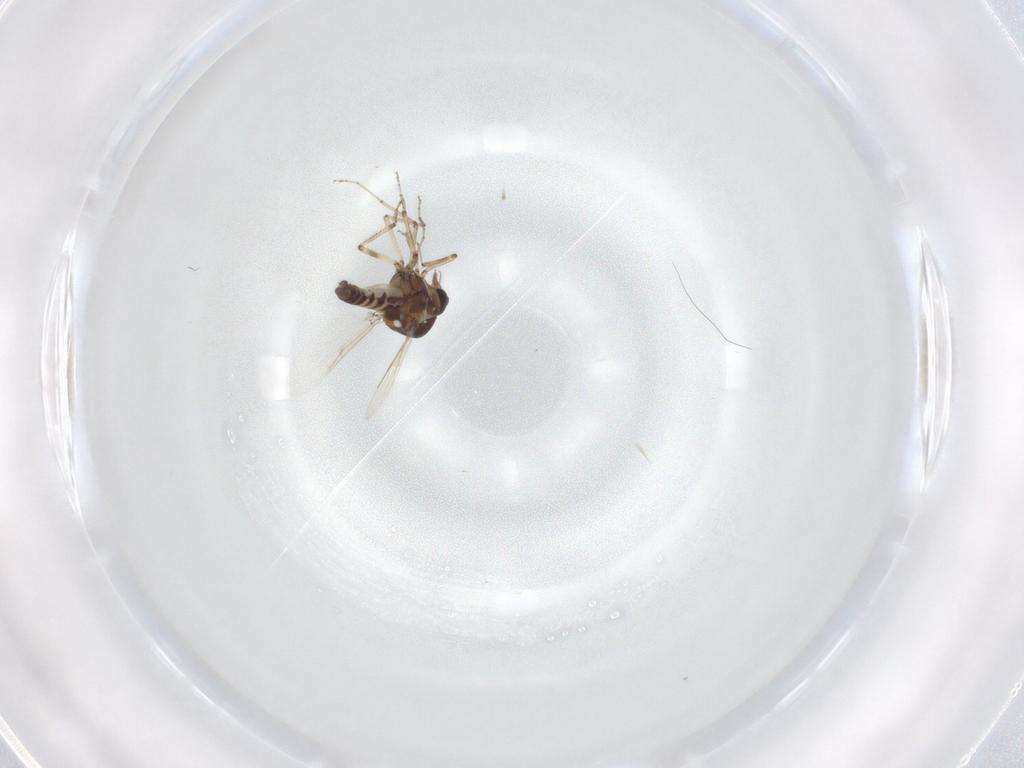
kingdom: Animalia
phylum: Arthropoda
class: Insecta
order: Diptera
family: Ceratopogonidae
